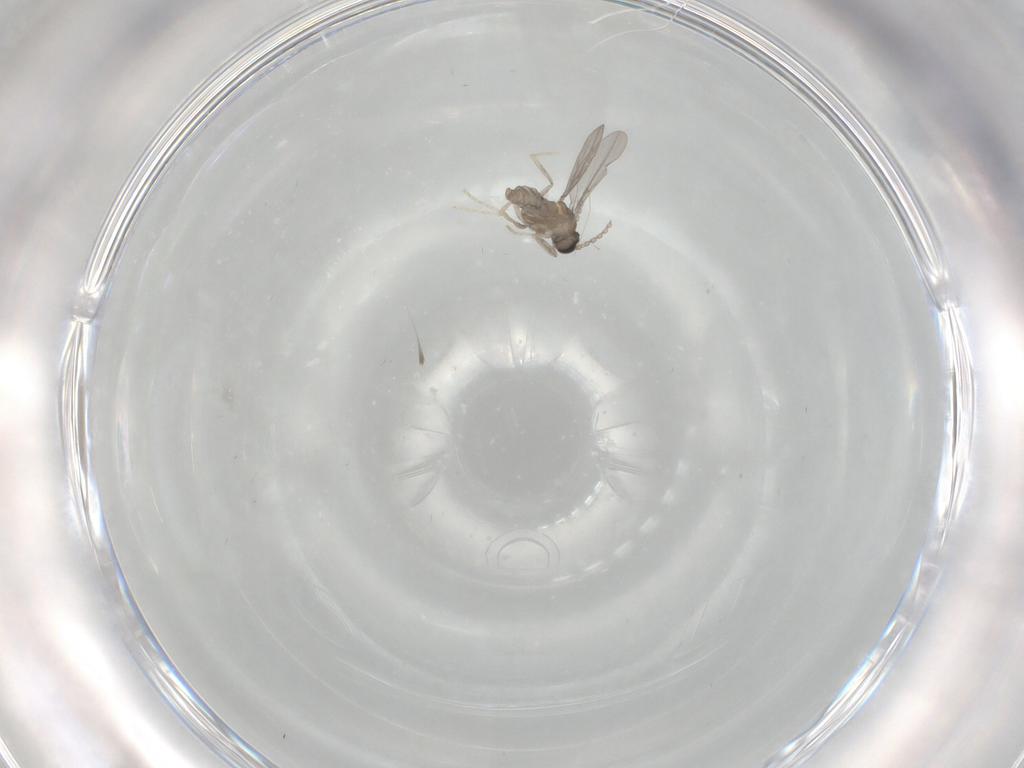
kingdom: Animalia
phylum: Arthropoda
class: Insecta
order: Diptera
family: Cecidomyiidae
